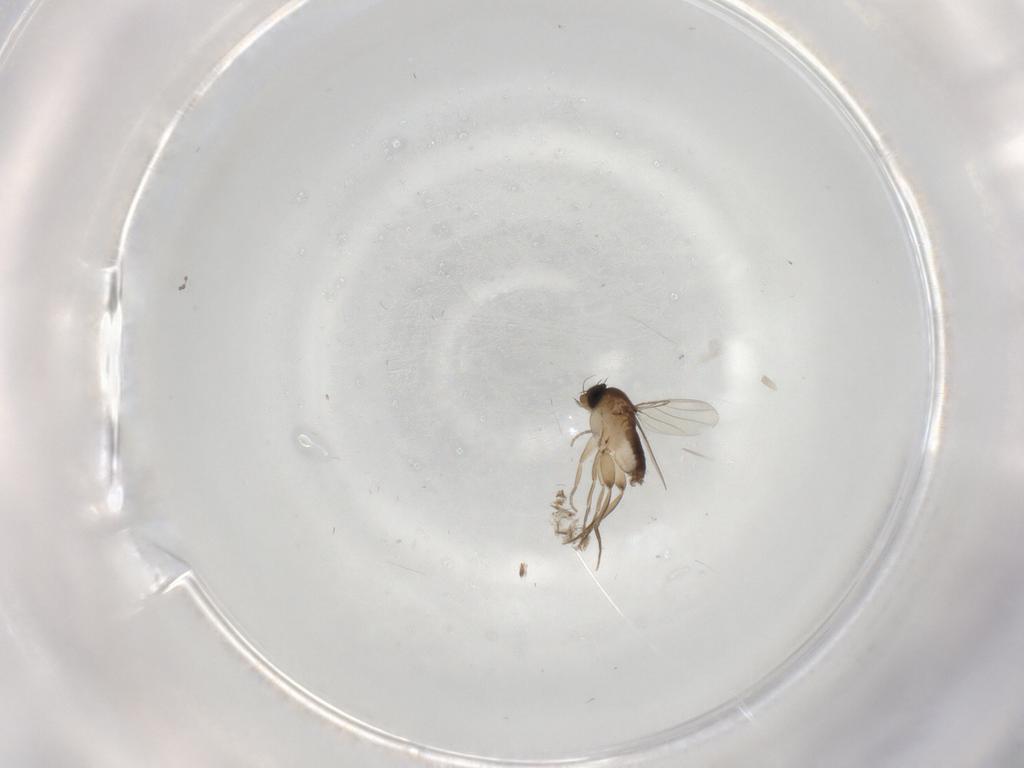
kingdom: Animalia
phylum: Arthropoda
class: Insecta
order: Diptera
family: Phoridae
